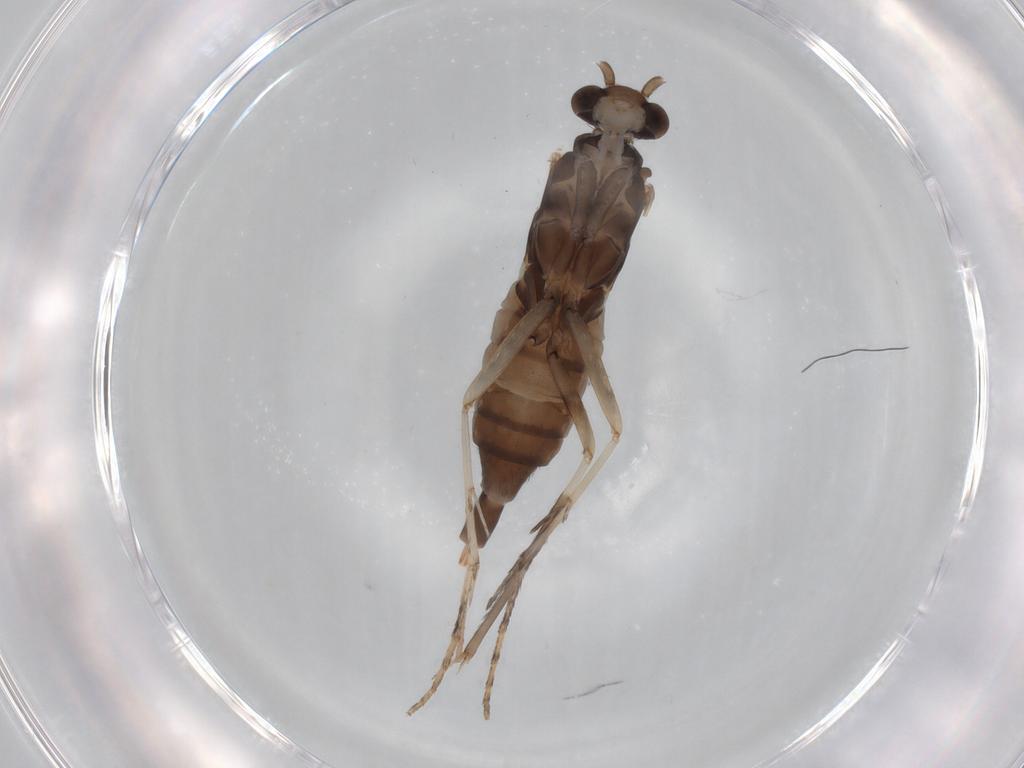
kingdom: Animalia
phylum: Arthropoda
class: Insecta
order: Trichoptera
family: Xiphocentronidae
